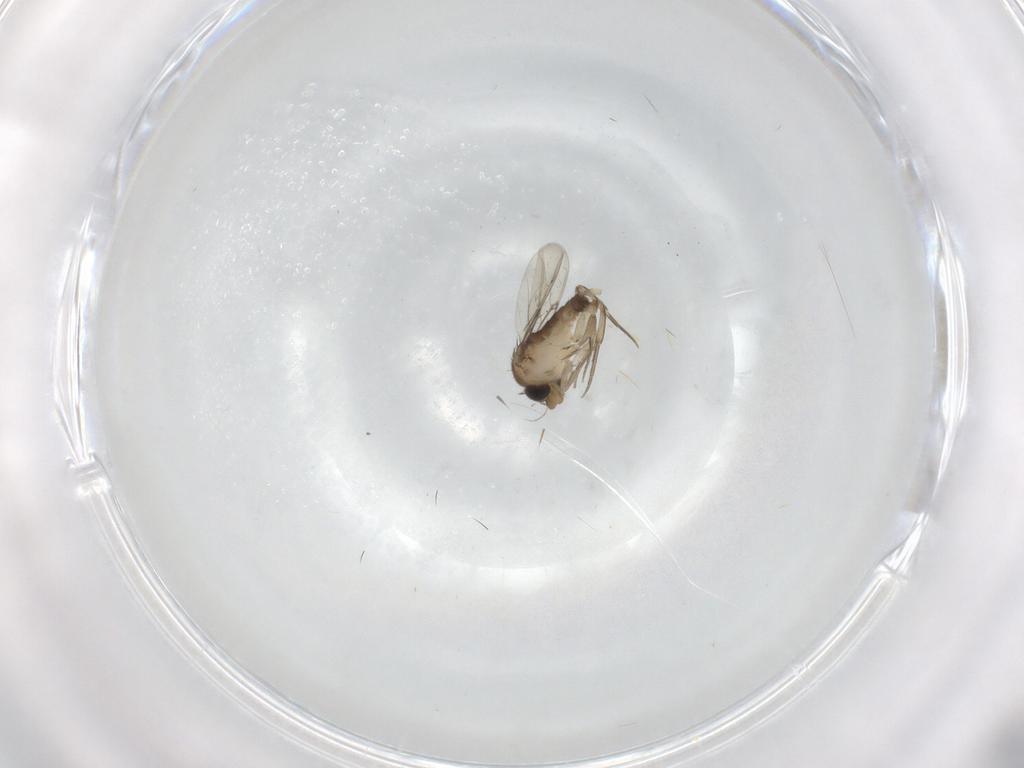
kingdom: Animalia
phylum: Arthropoda
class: Insecta
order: Diptera
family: Phoridae
